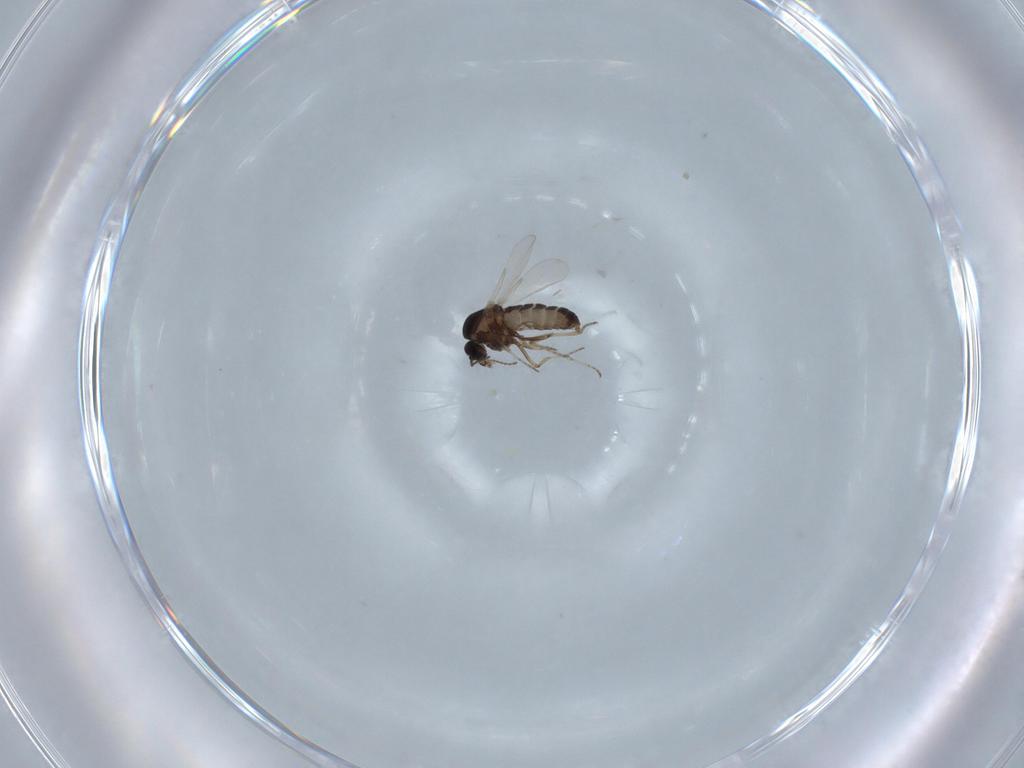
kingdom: Animalia
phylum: Arthropoda
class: Insecta
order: Diptera
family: Ceratopogonidae
